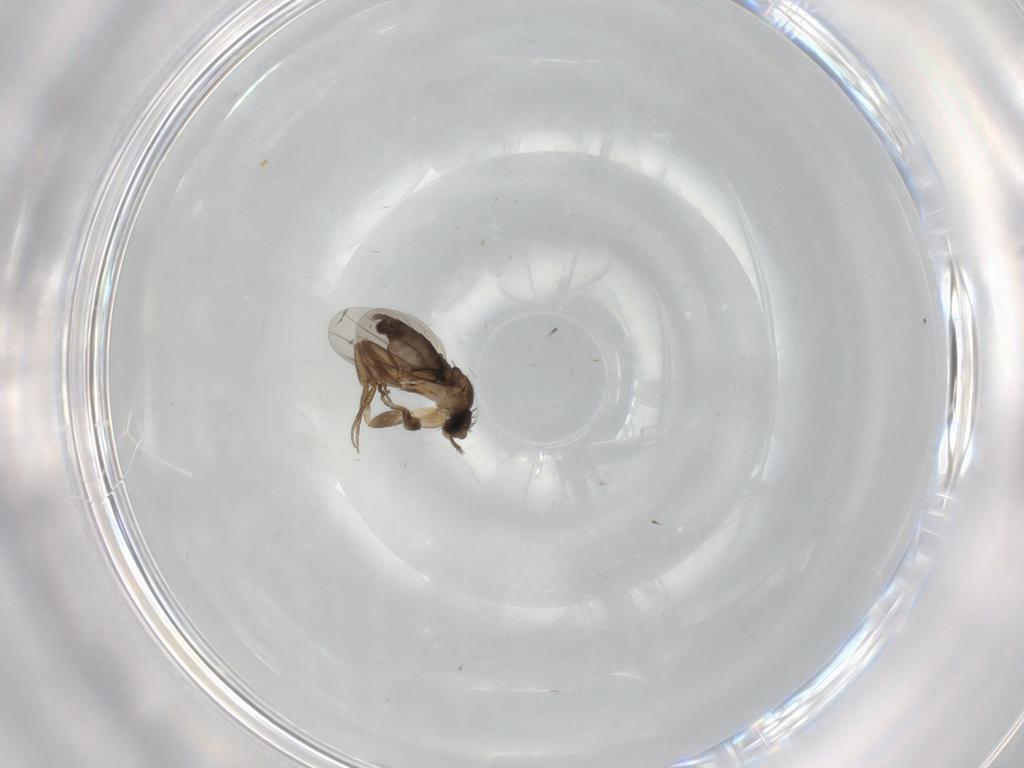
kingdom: Animalia
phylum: Arthropoda
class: Insecta
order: Diptera
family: Phoridae
